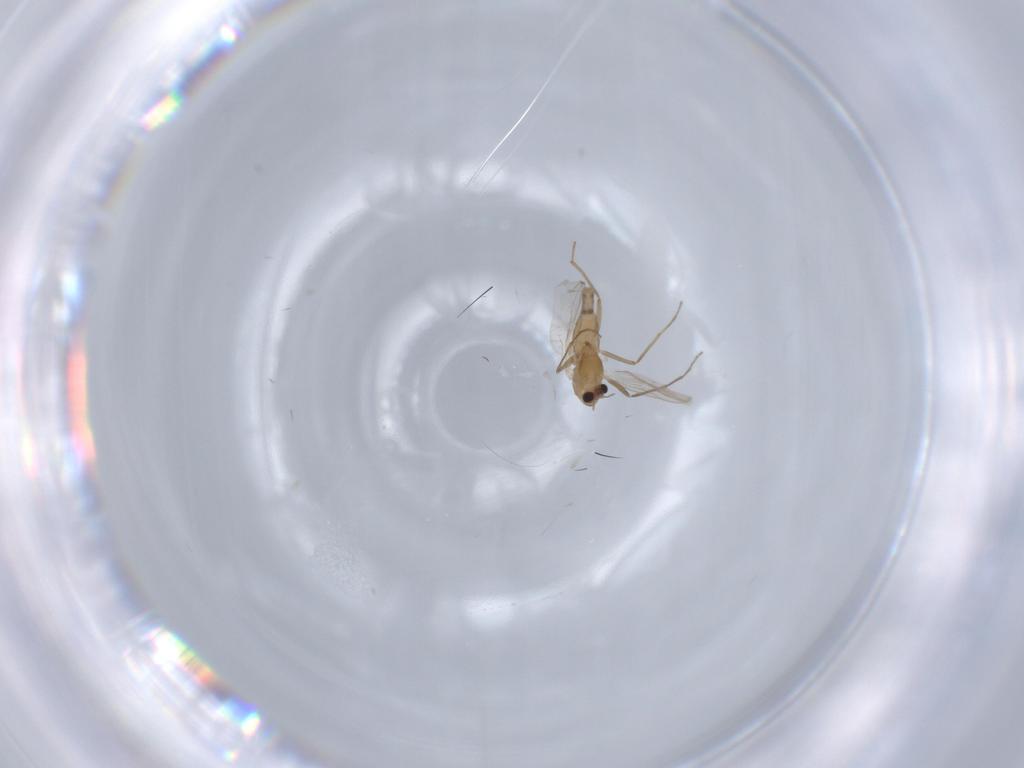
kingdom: Animalia
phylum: Arthropoda
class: Insecta
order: Diptera
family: Chironomidae
